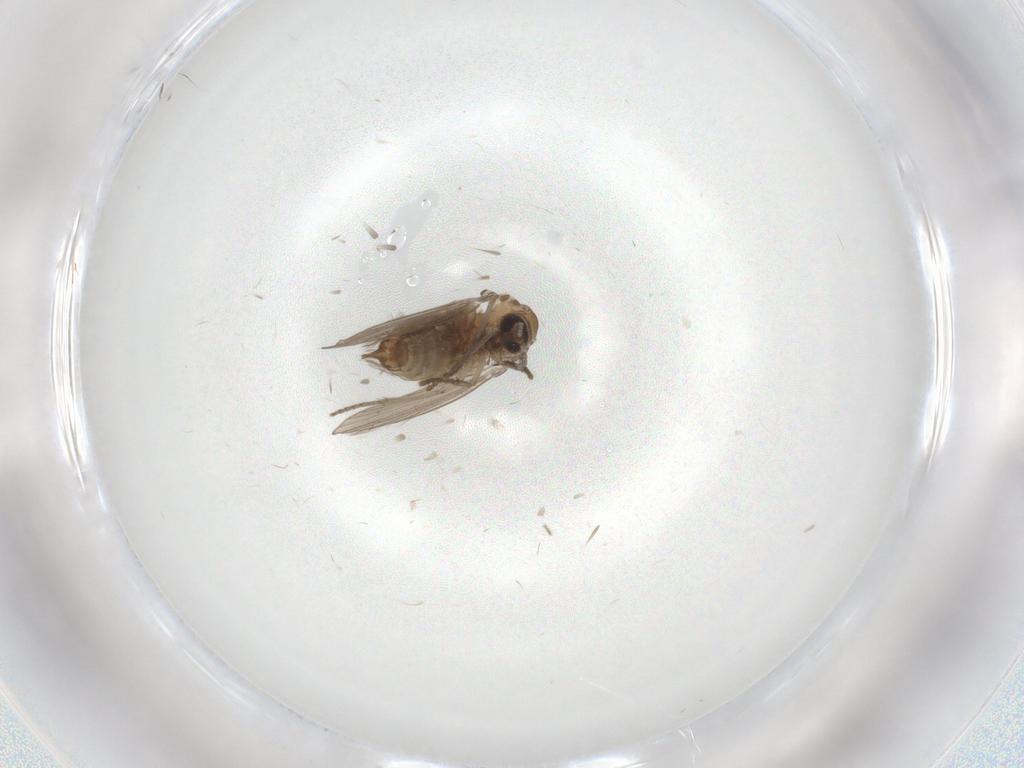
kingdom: Animalia
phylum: Arthropoda
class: Insecta
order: Diptera
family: Psychodidae
